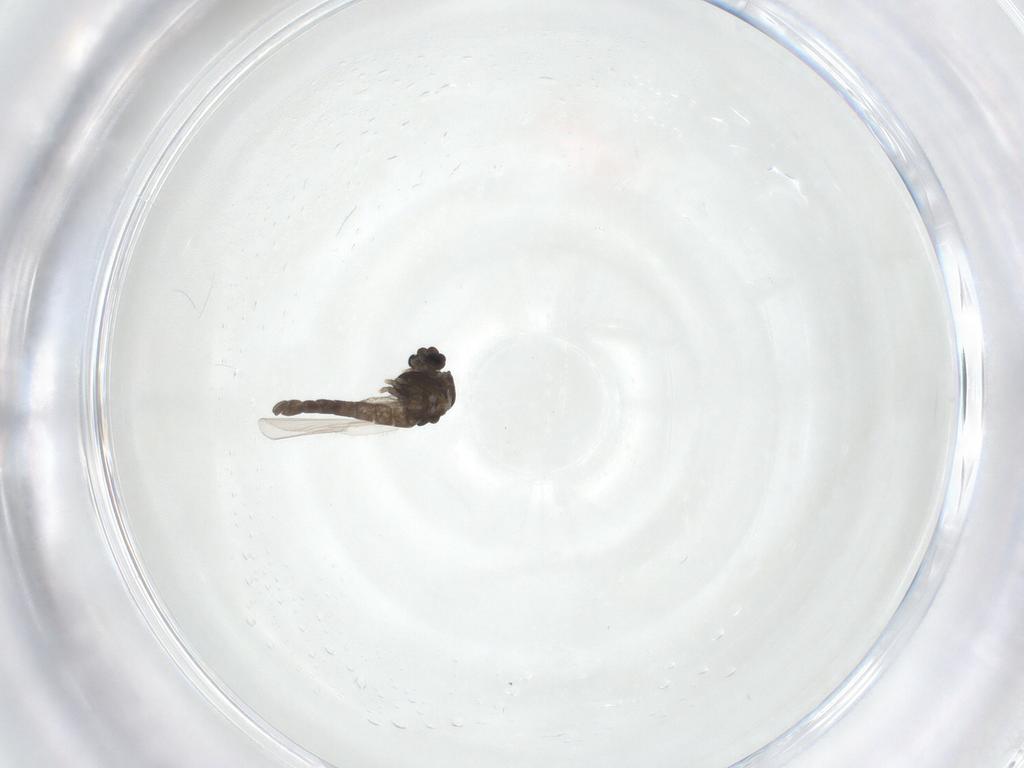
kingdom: Animalia
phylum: Arthropoda
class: Insecta
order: Diptera
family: Chironomidae
